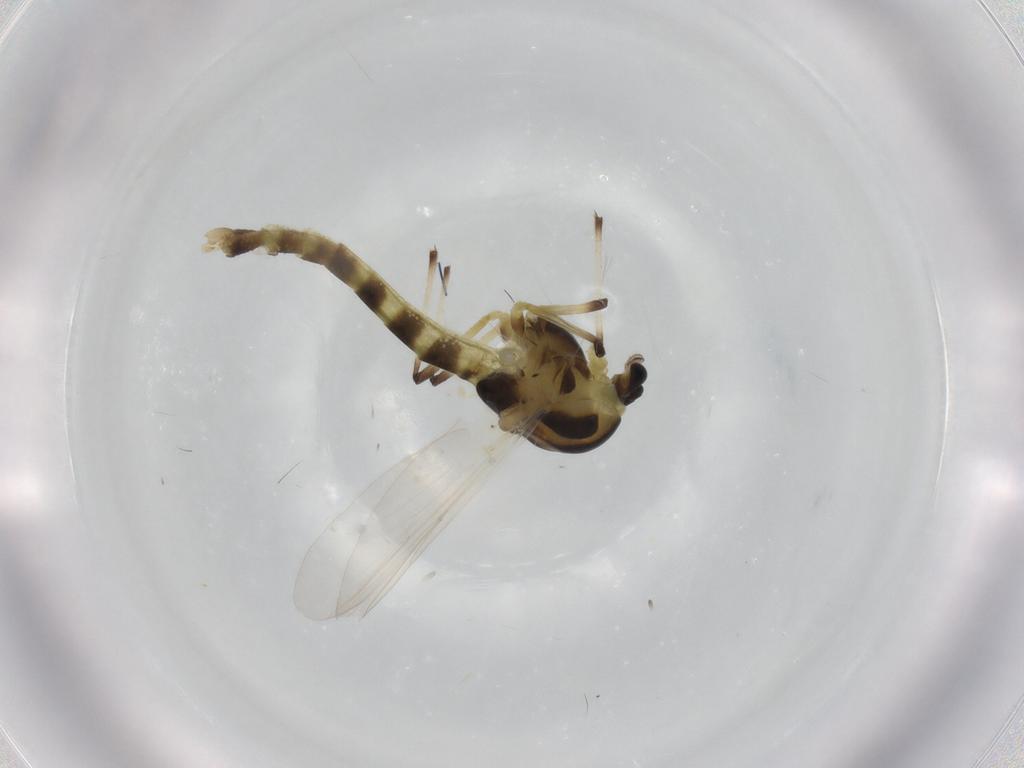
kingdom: Animalia
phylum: Arthropoda
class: Insecta
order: Diptera
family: Chironomidae
